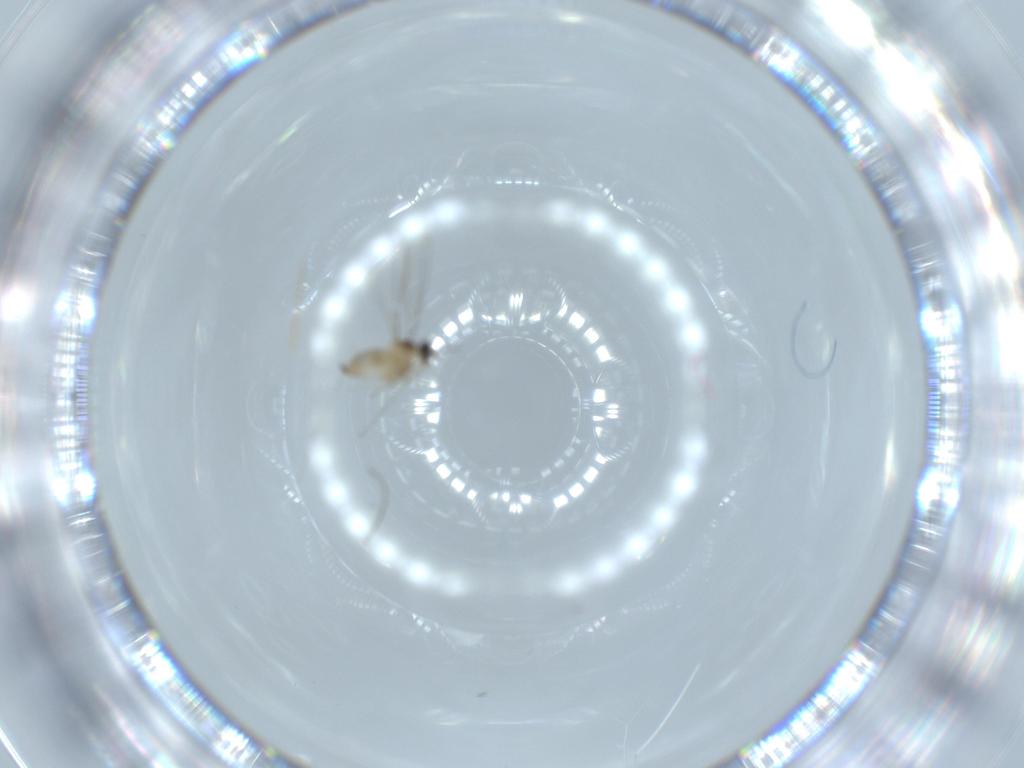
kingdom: Animalia
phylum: Arthropoda
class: Insecta
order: Diptera
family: Cecidomyiidae
